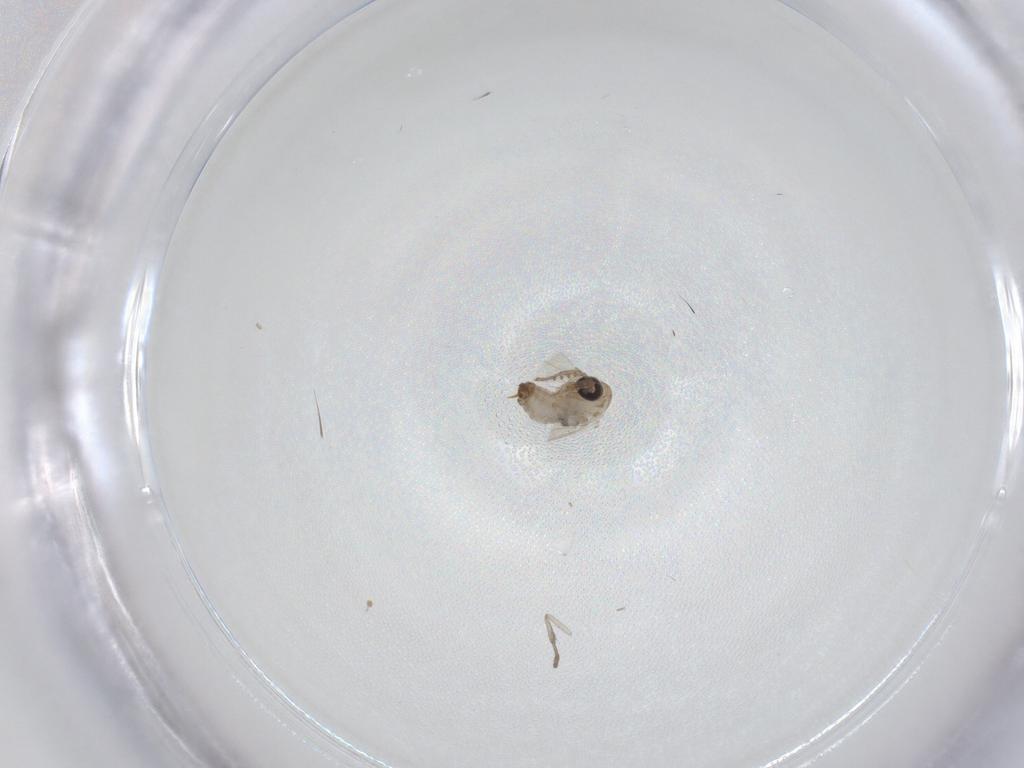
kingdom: Animalia
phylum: Arthropoda
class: Insecta
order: Diptera
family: Psychodidae
